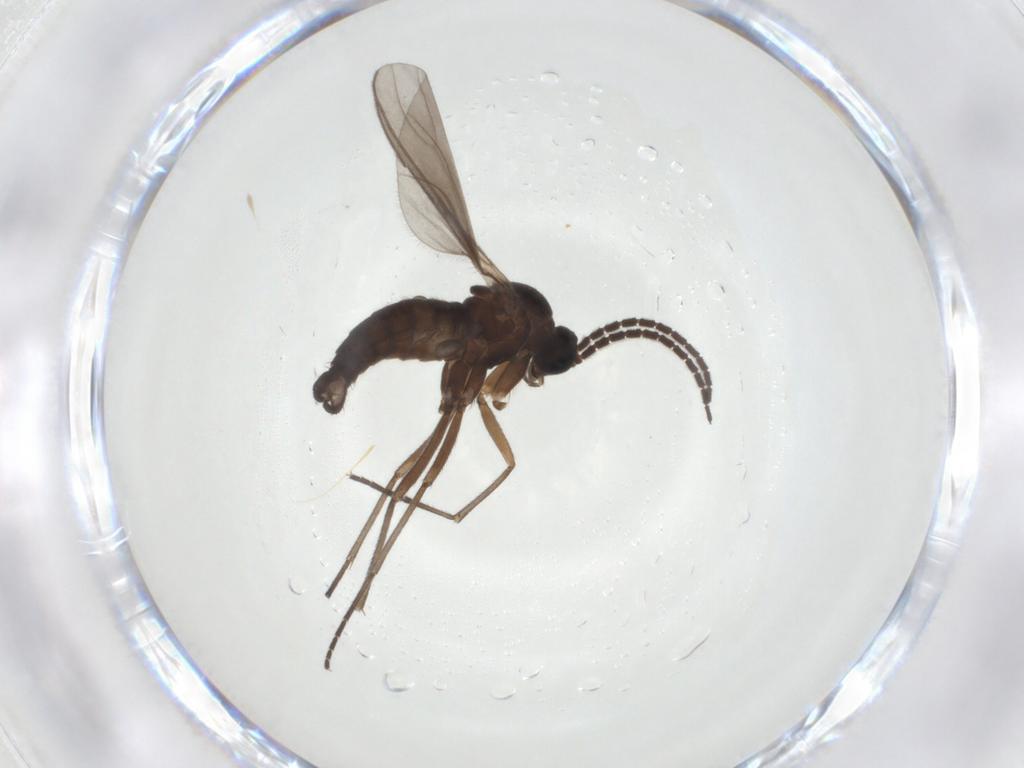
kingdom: Animalia
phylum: Arthropoda
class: Insecta
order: Diptera
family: Sciaridae
